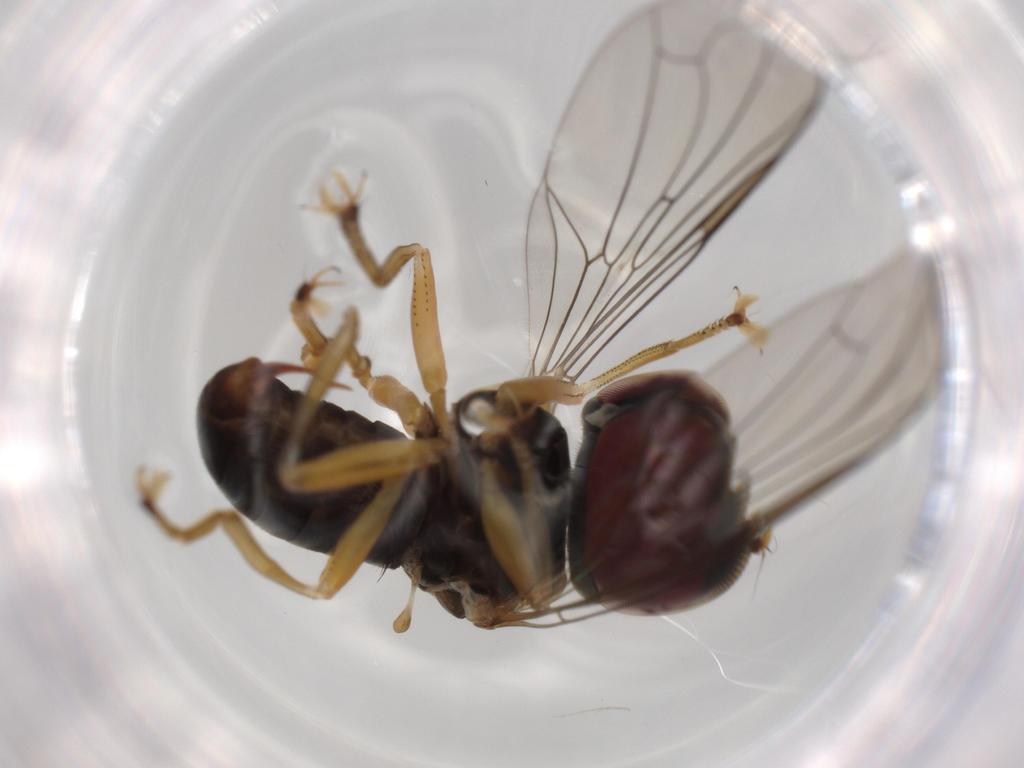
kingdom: Animalia
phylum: Arthropoda
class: Insecta
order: Diptera
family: Pipunculidae
